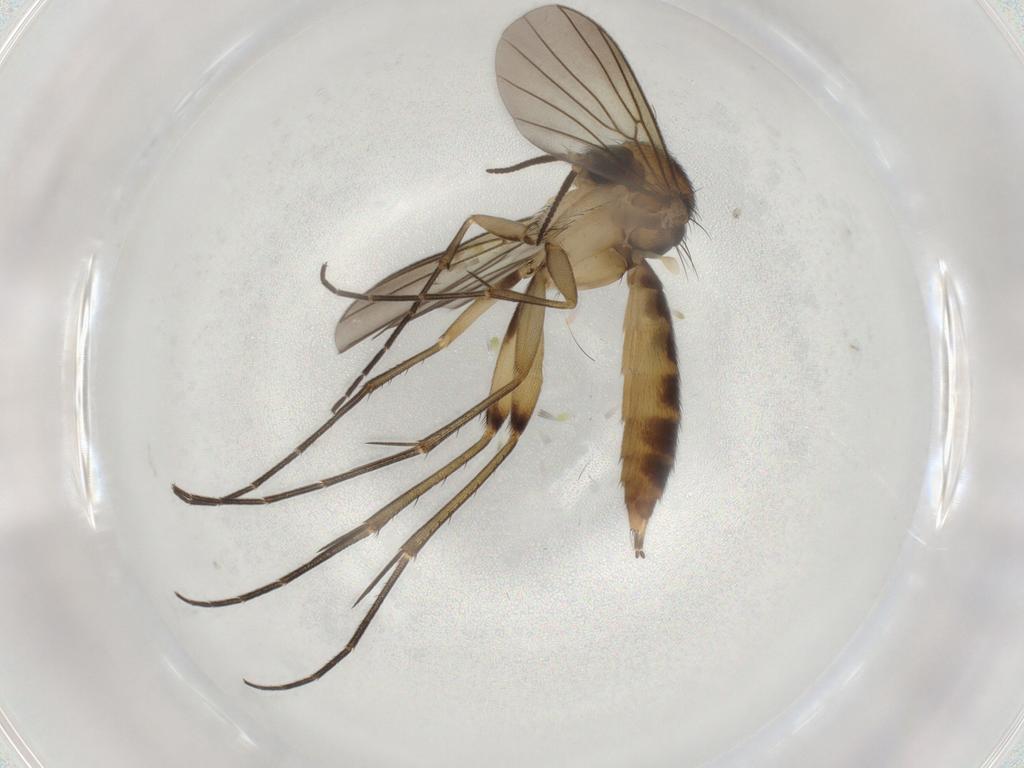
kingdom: Animalia
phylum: Arthropoda
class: Insecta
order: Diptera
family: Mycetophilidae
